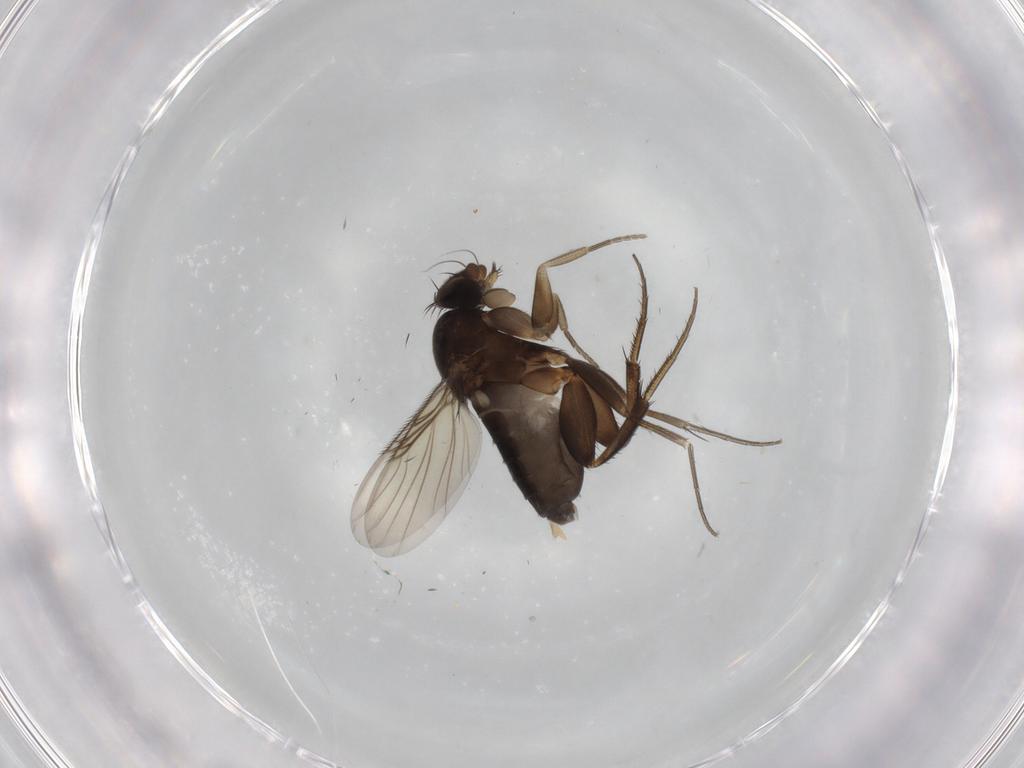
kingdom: Animalia
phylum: Arthropoda
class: Insecta
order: Diptera
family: Phoridae
